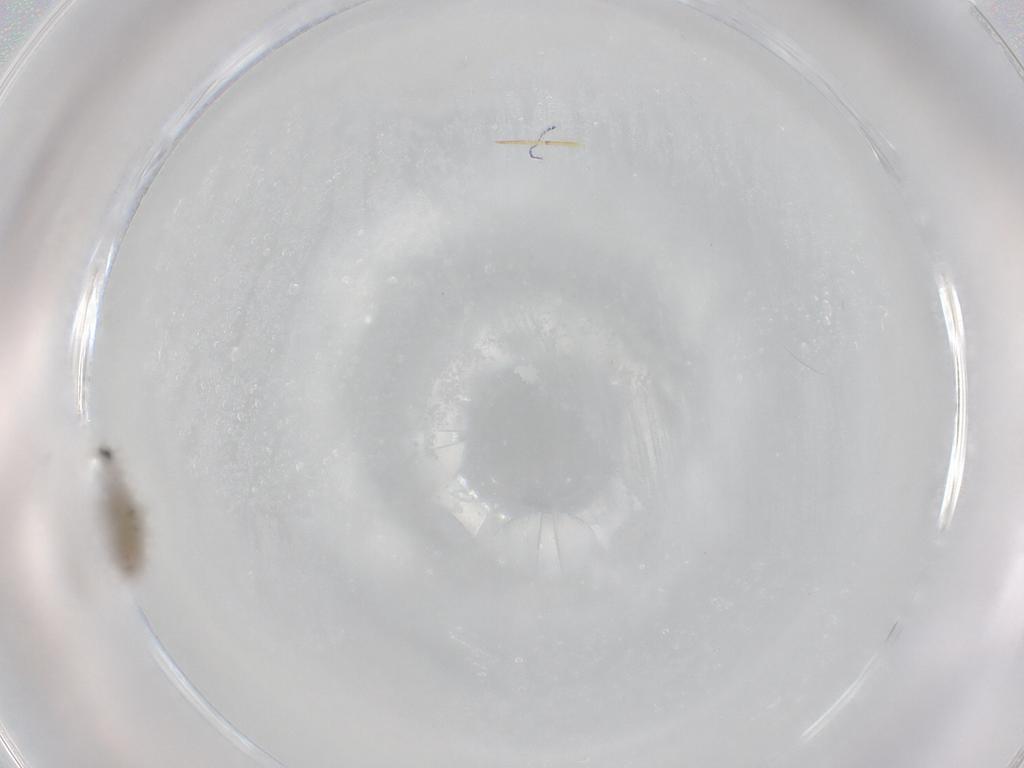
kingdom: Animalia
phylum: Arthropoda
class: Insecta
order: Diptera
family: Chironomidae
